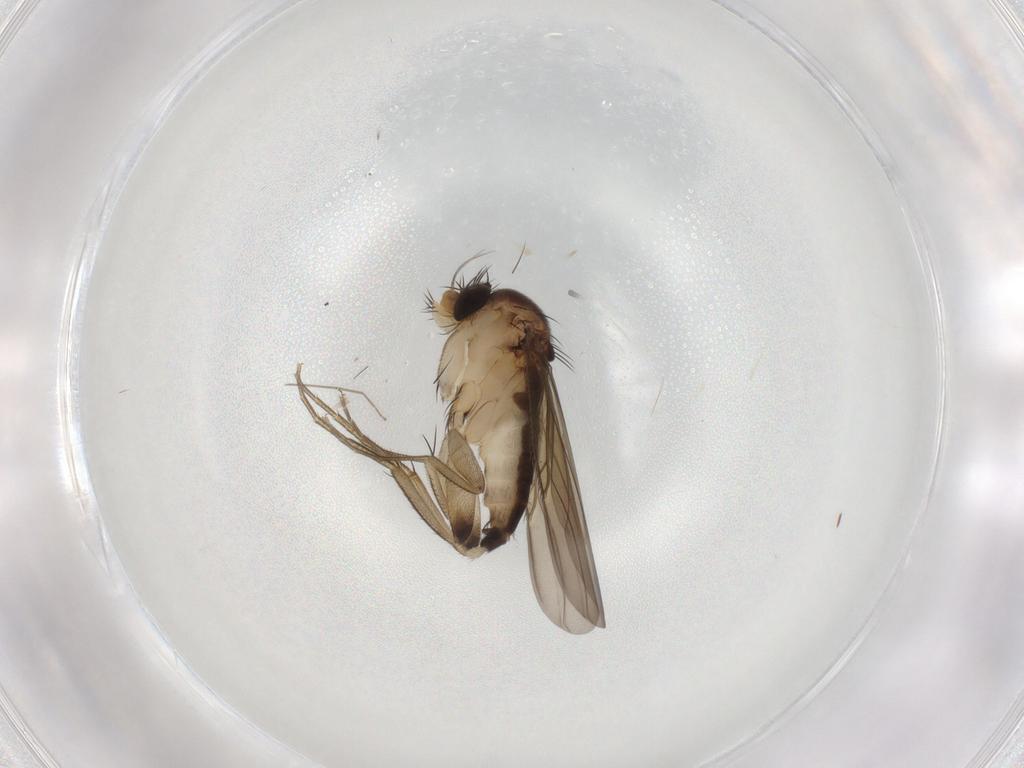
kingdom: Animalia
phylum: Arthropoda
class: Insecta
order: Diptera
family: Phoridae
